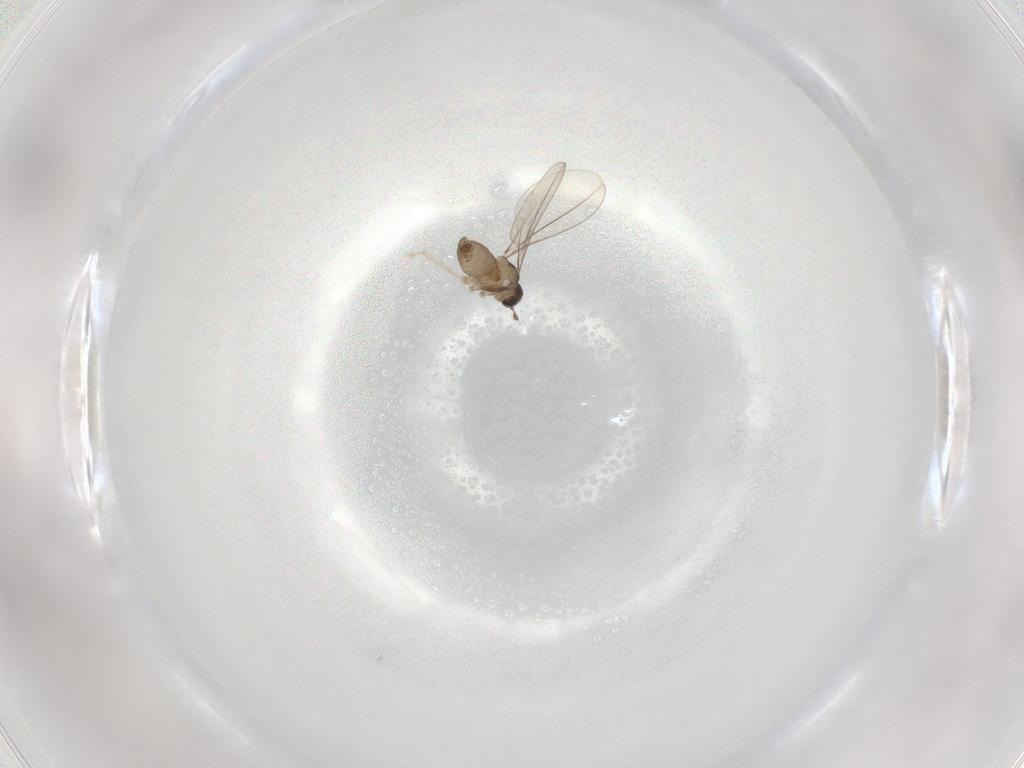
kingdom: Animalia
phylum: Arthropoda
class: Insecta
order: Diptera
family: Cecidomyiidae
